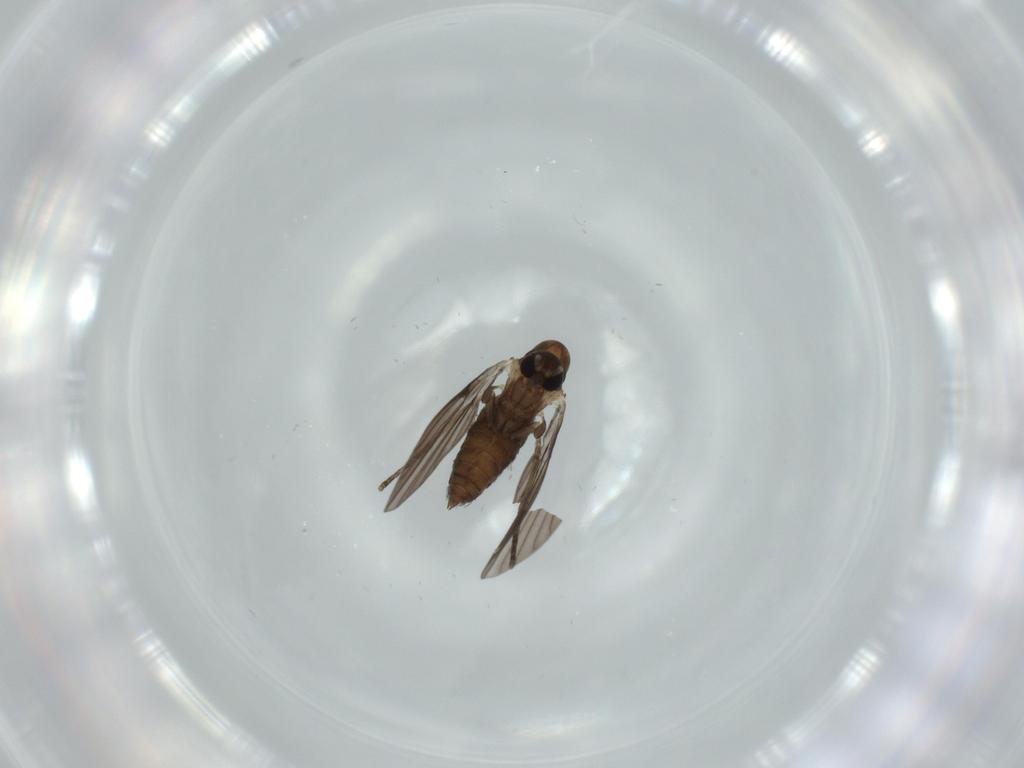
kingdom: Animalia
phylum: Arthropoda
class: Insecta
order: Diptera
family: Psychodidae
